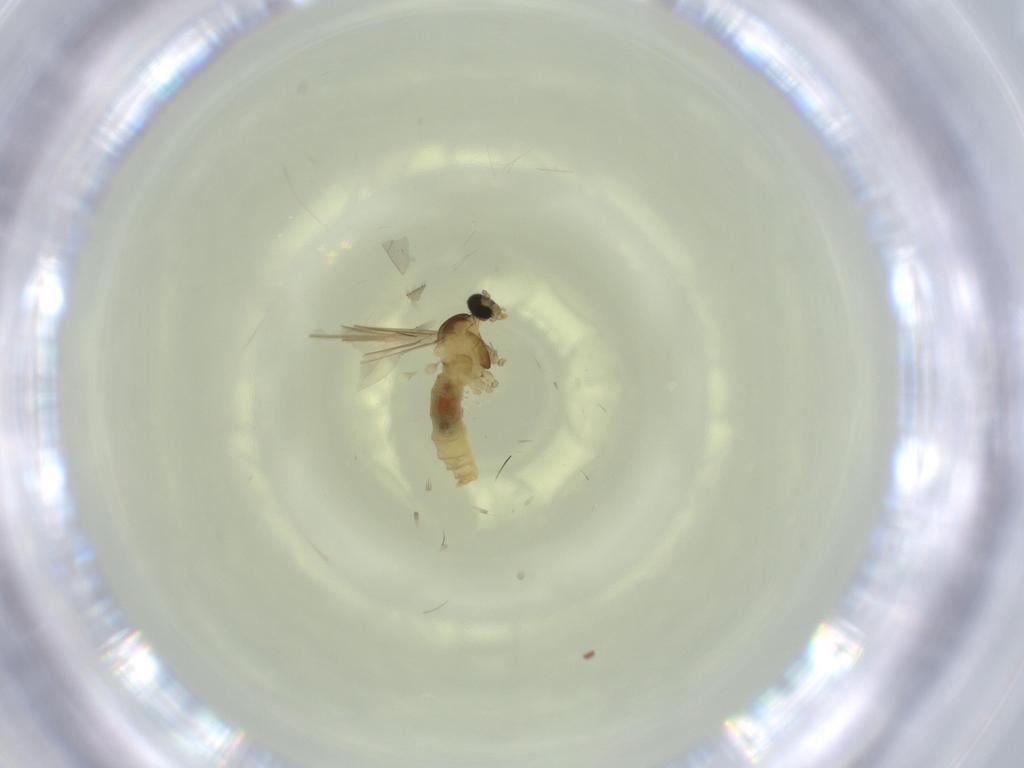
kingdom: Animalia
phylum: Arthropoda
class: Insecta
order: Diptera
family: Cecidomyiidae
